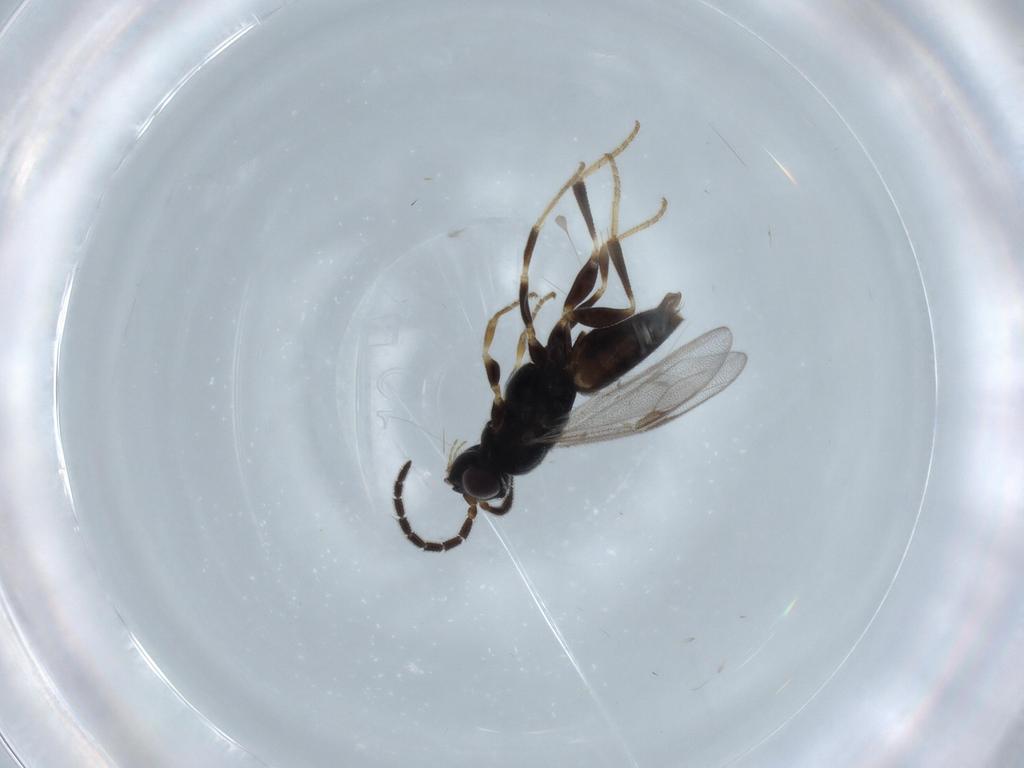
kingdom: Animalia
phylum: Arthropoda
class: Insecta
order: Hymenoptera
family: Dryinidae
